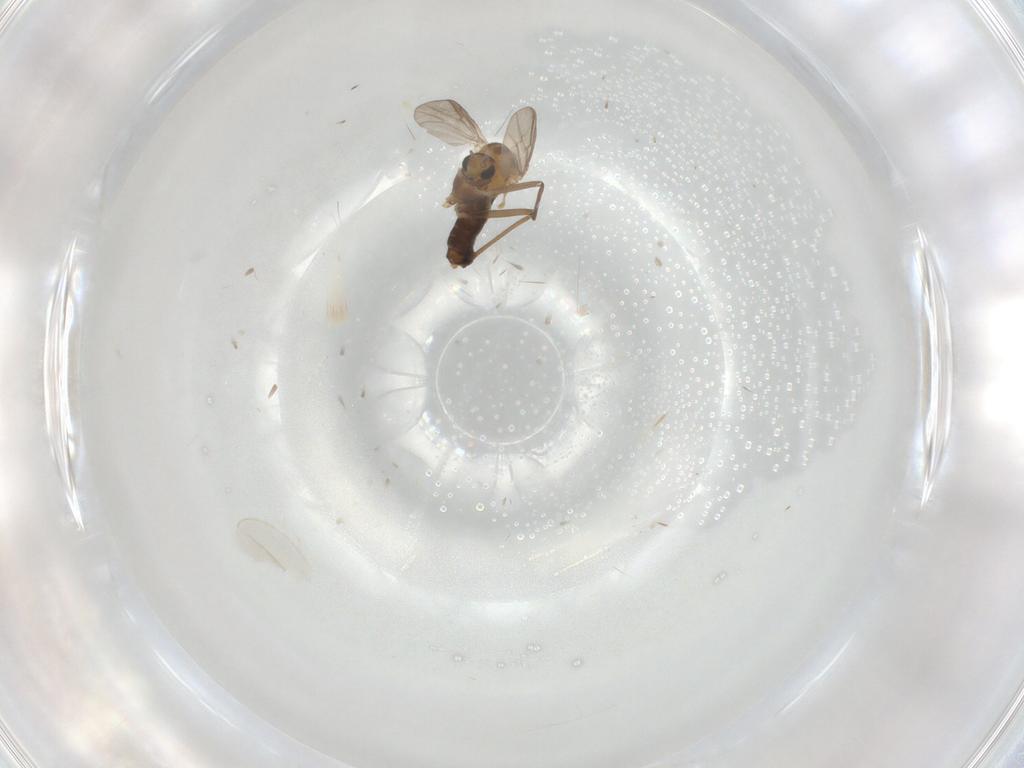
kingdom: Animalia
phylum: Arthropoda
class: Insecta
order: Diptera
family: Chironomidae
